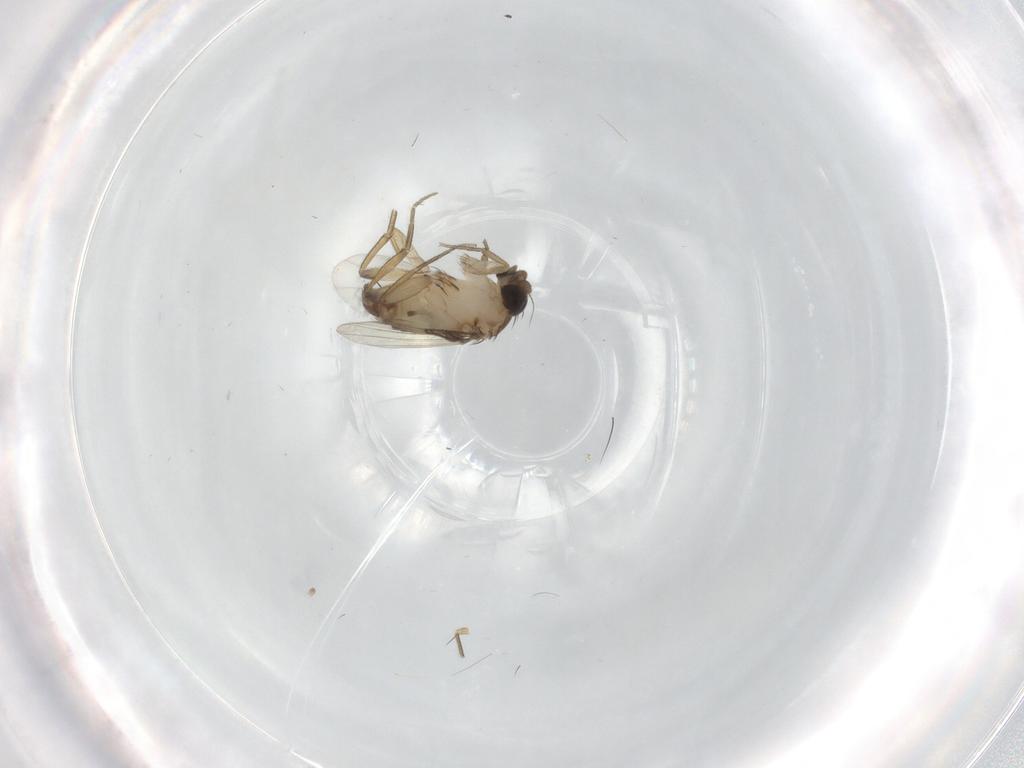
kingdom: Animalia
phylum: Arthropoda
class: Insecta
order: Diptera
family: Phoridae
